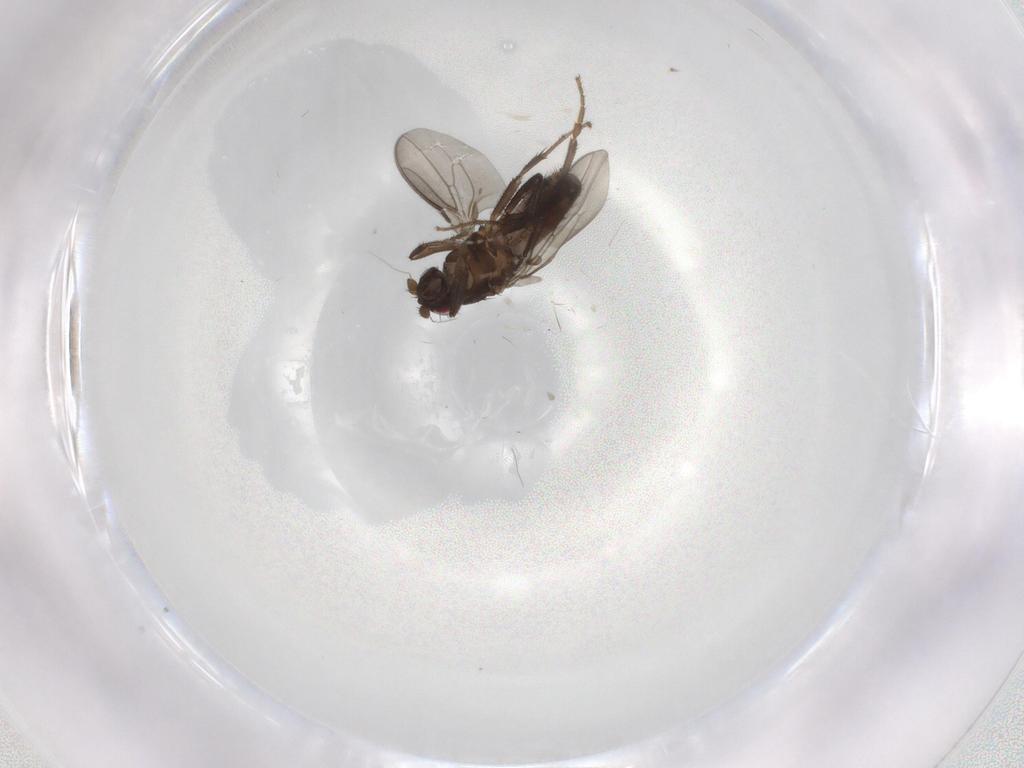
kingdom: Animalia
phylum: Arthropoda
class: Insecta
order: Diptera
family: Sphaeroceridae
